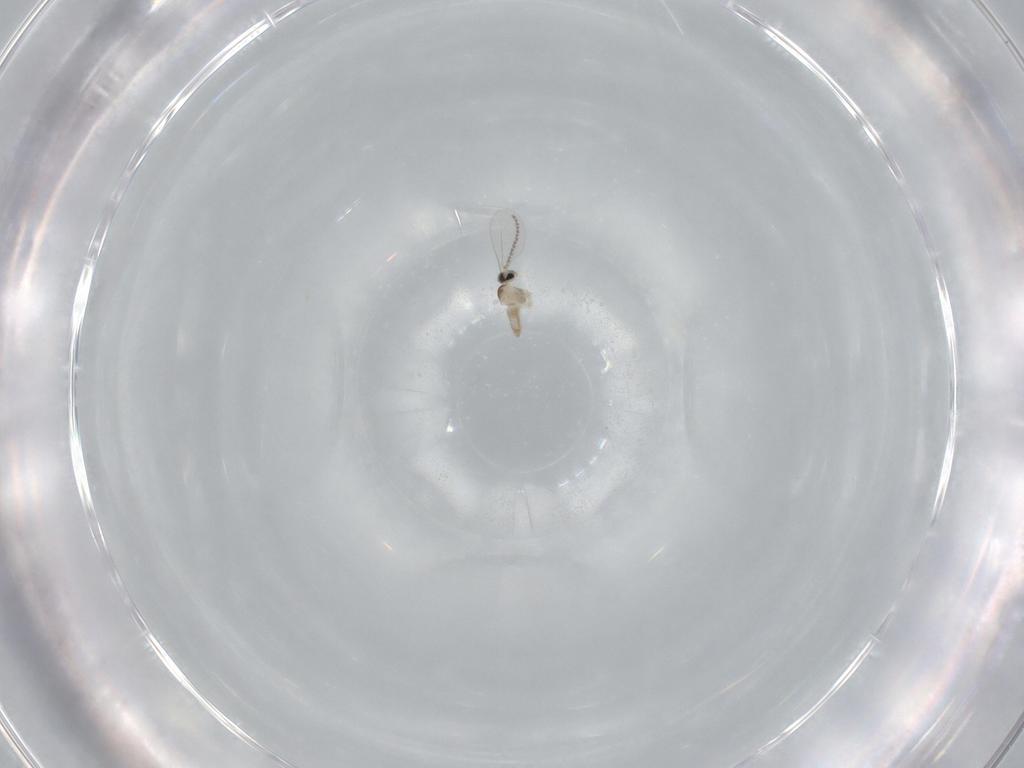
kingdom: Animalia
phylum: Arthropoda
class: Insecta
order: Diptera
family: Cecidomyiidae
